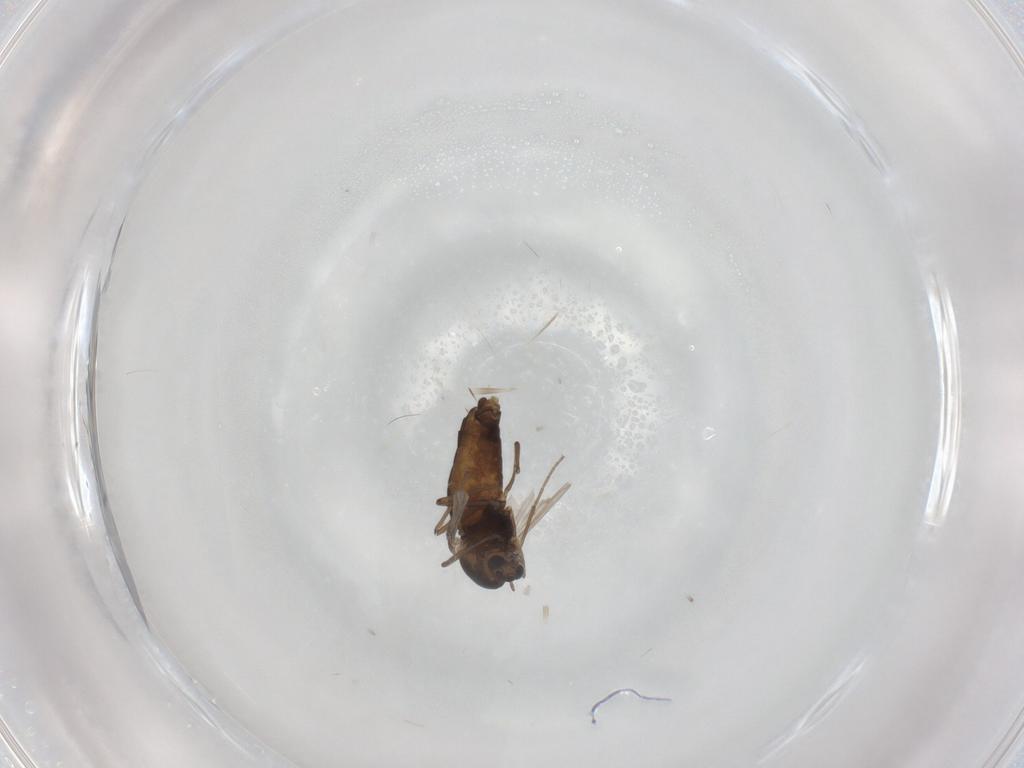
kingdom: Animalia
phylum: Arthropoda
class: Insecta
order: Diptera
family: Chironomidae
